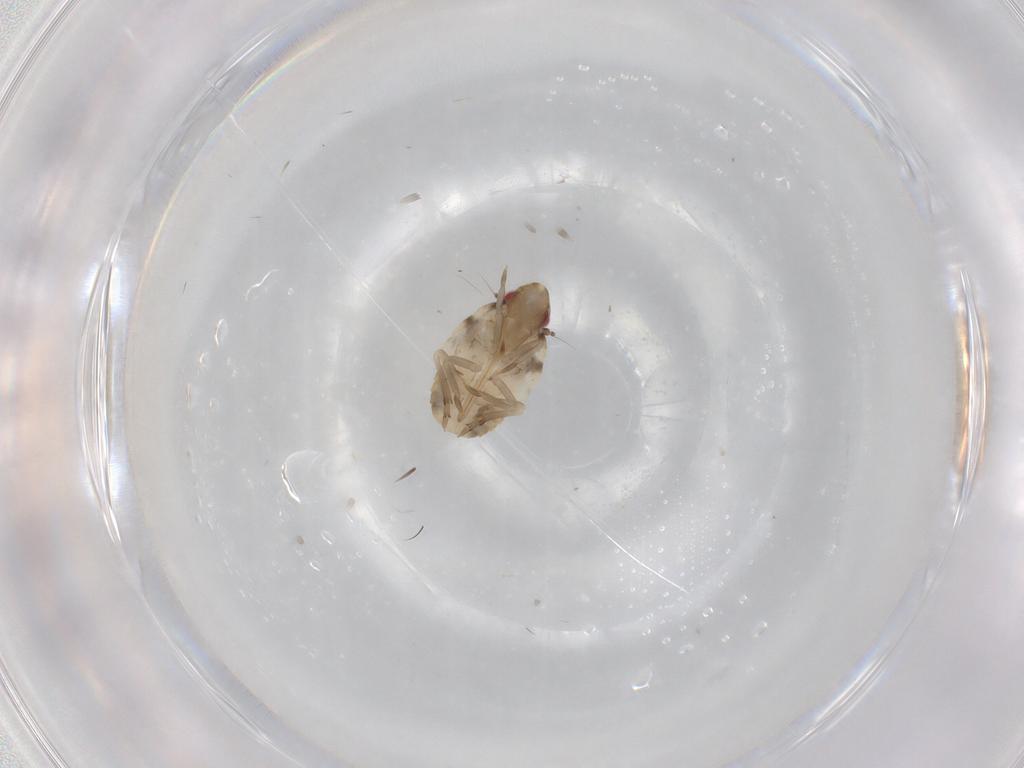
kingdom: Animalia
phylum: Arthropoda
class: Insecta
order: Hemiptera
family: Flatidae
